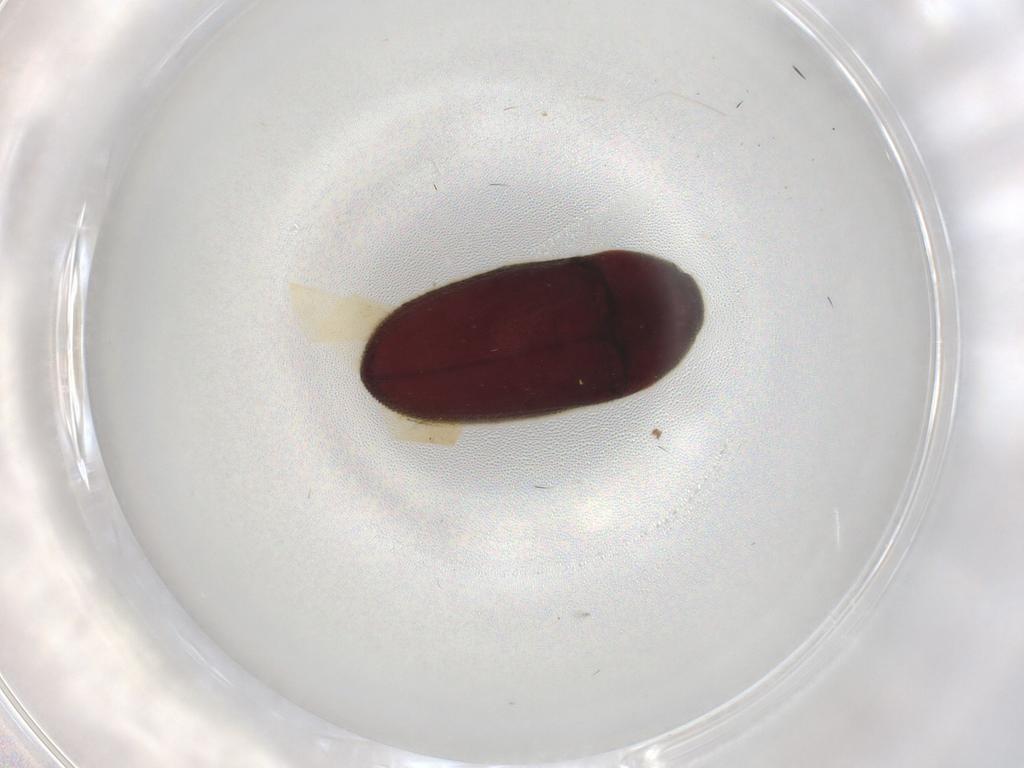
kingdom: Animalia
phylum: Arthropoda
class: Insecta
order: Coleoptera
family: Throscidae
